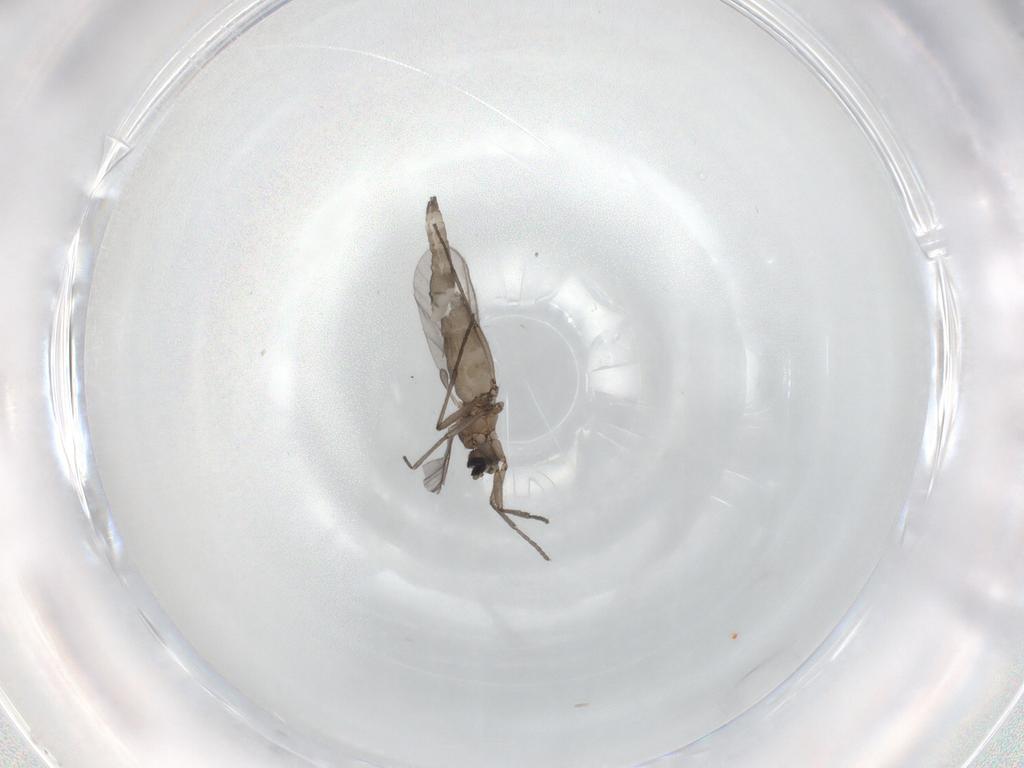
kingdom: Animalia
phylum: Arthropoda
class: Insecta
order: Diptera
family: Sciaridae
